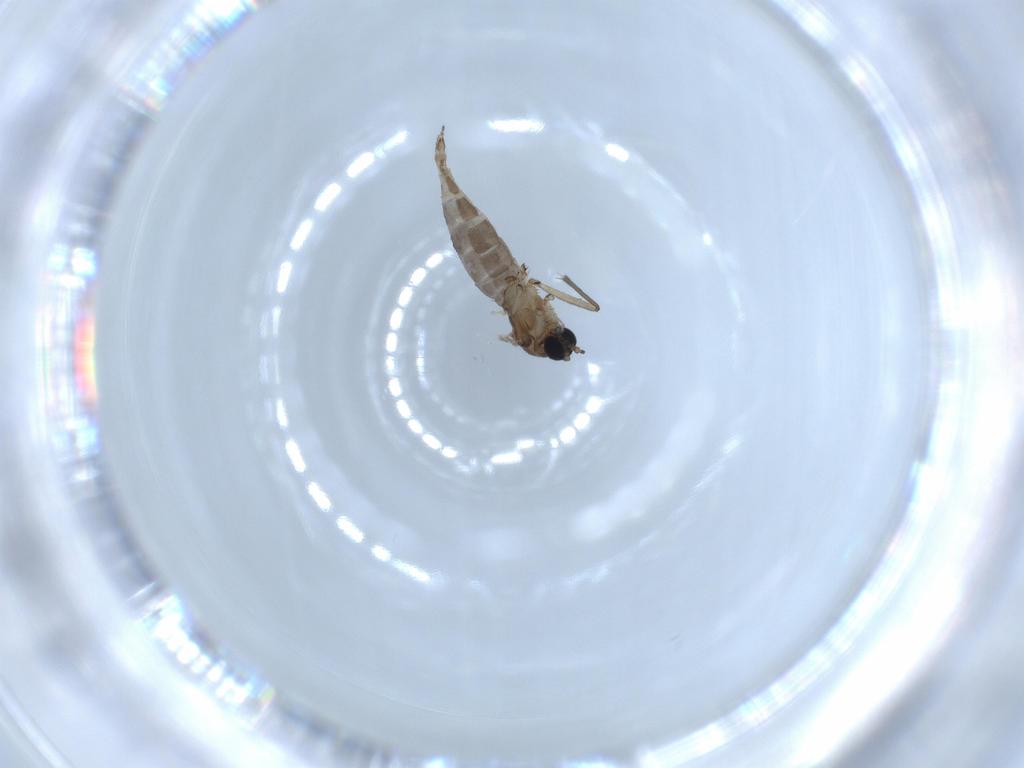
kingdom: Animalia
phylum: Arthropoda
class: Insecta
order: Diptera
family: Sciaridae
